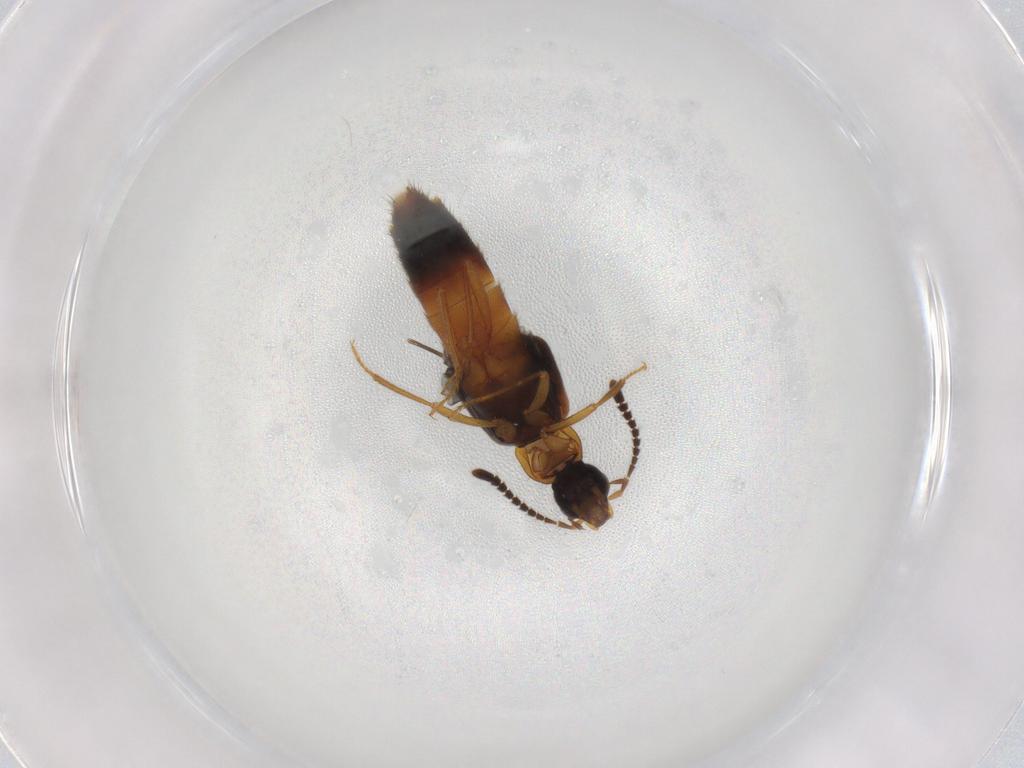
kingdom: Animalia
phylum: Arthropoda
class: Insecta
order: Coleoptera
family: Staphylinidae
